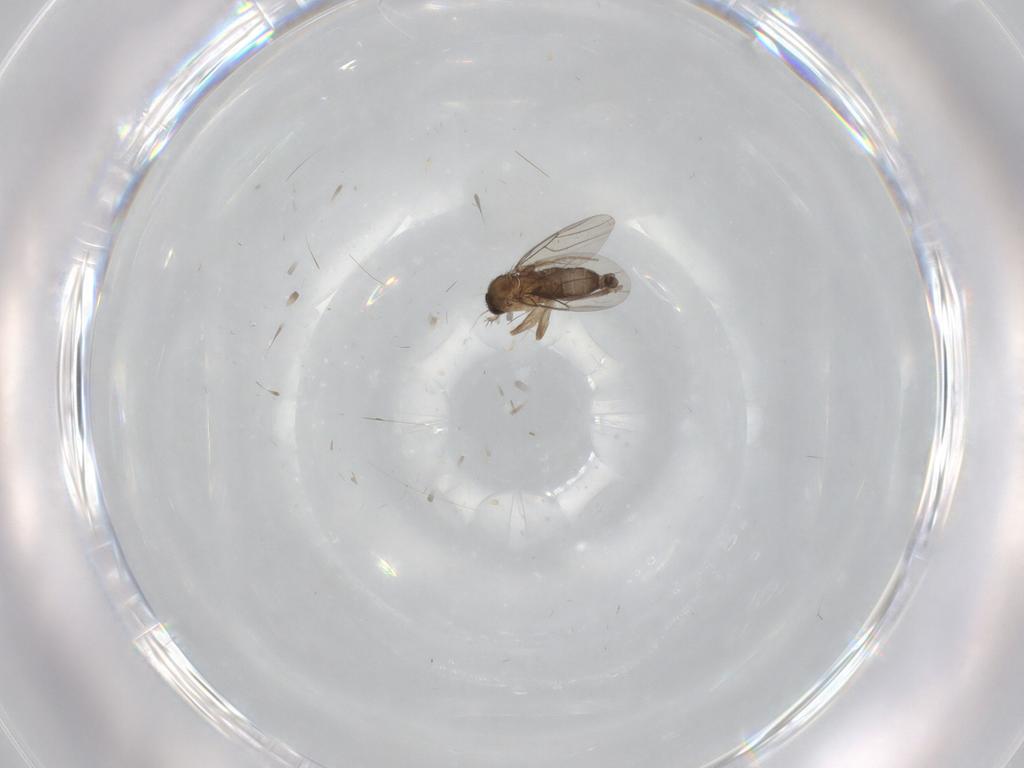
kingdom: Animalia
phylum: Arthropoda
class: Insecta
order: Diptera
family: Phoridae
